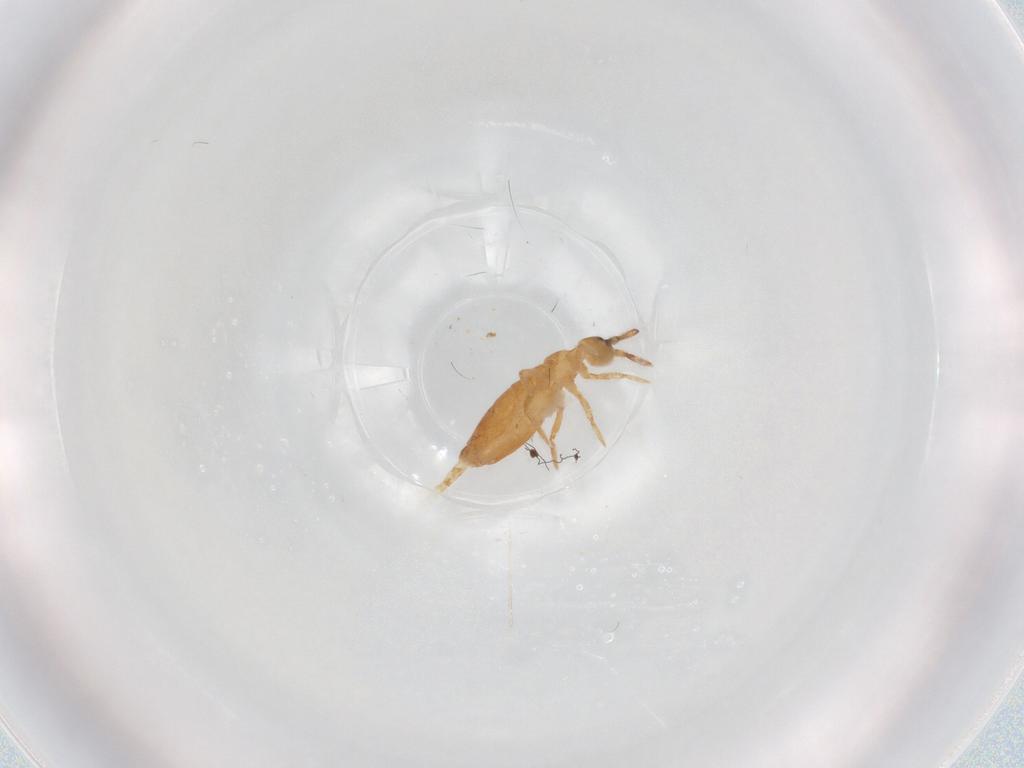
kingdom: Animalia
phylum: Arthropoda
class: Collembola
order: Entomobryomorpha
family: Entomobryidae
